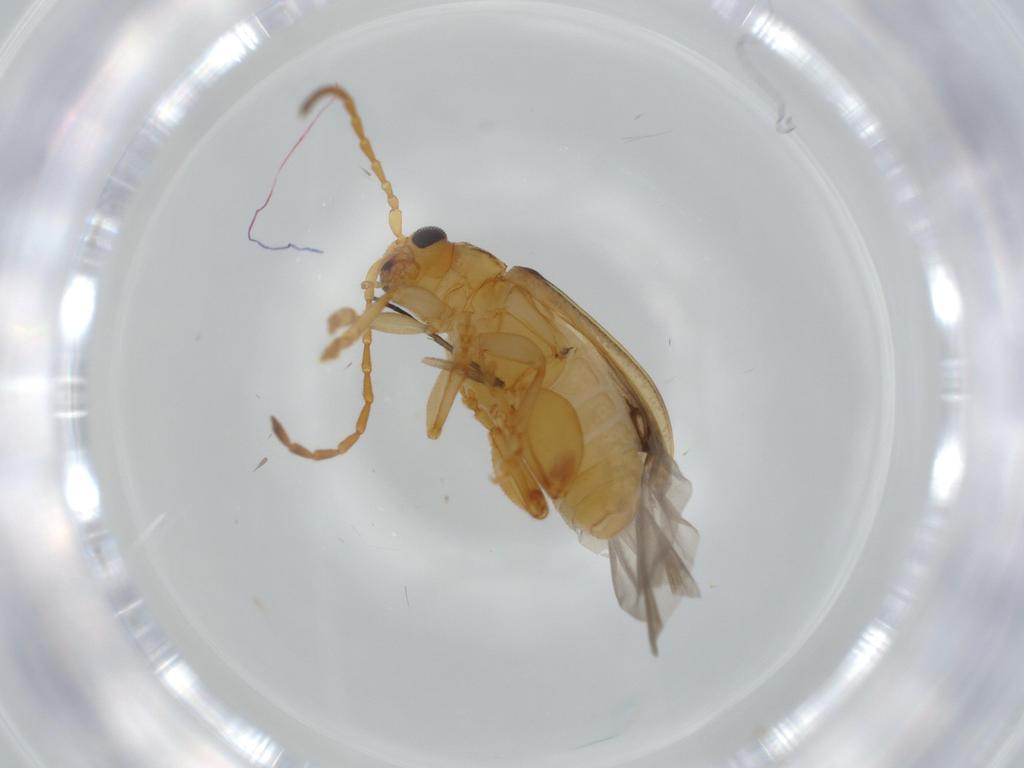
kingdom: Animalia
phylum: Arthropoda
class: Insecta
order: Coleoptera
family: Chrysomelidae
